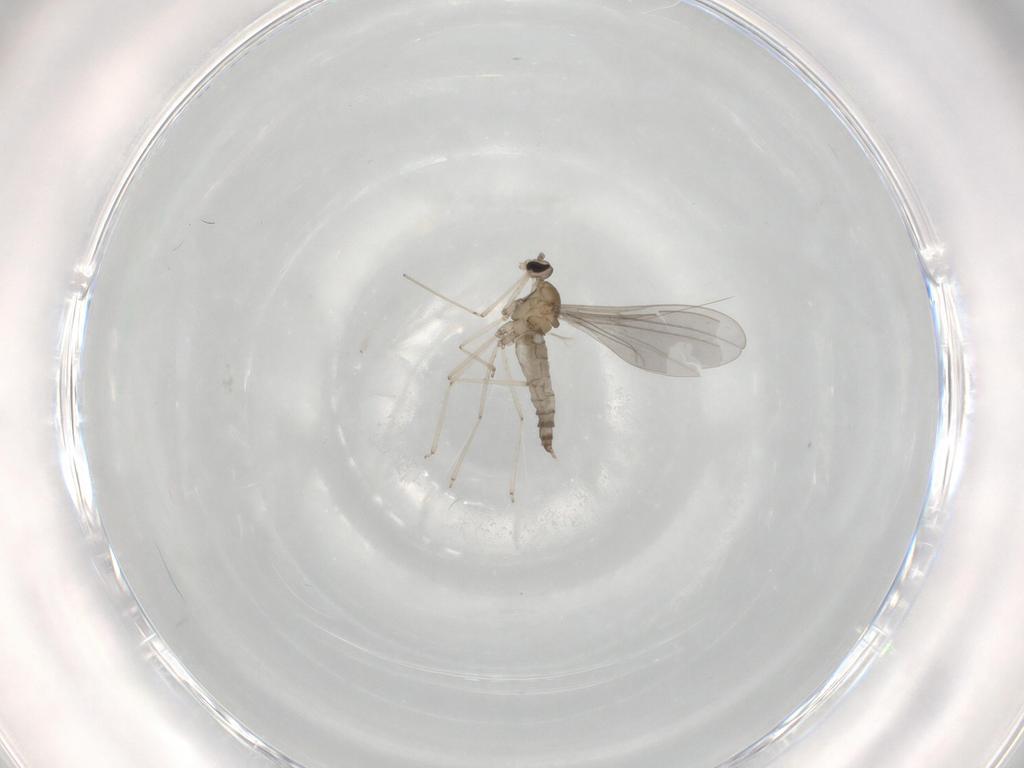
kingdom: Animalia
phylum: Arthropoda
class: Insecta
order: Diptera
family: Cecidomyiidae
